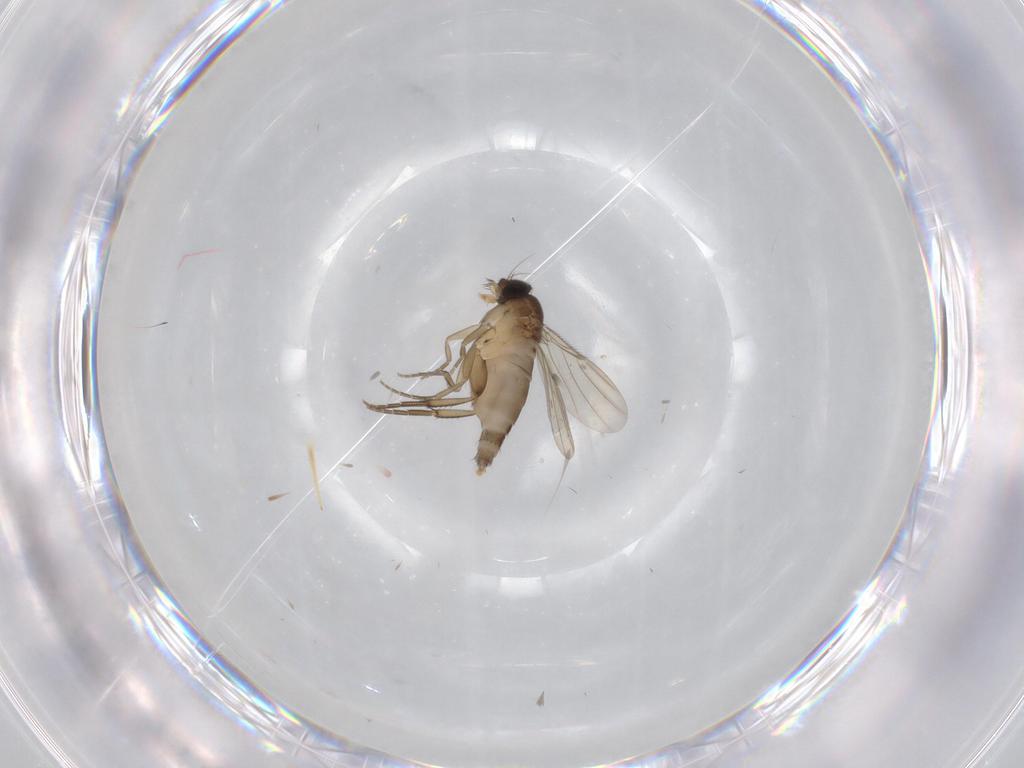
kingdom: Animalia
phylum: Arthropoda
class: Insecta
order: Diptera
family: Phoridae
